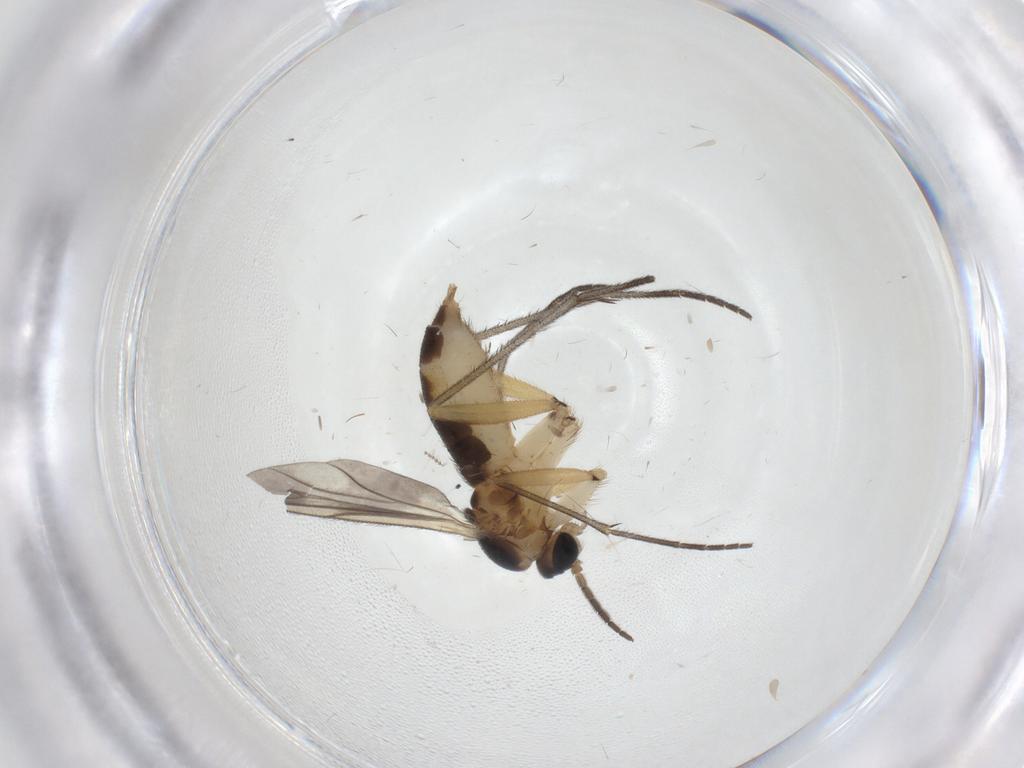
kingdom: Animalia
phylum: Arthropoda
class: Insecta
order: Diptera
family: Sciaridae
